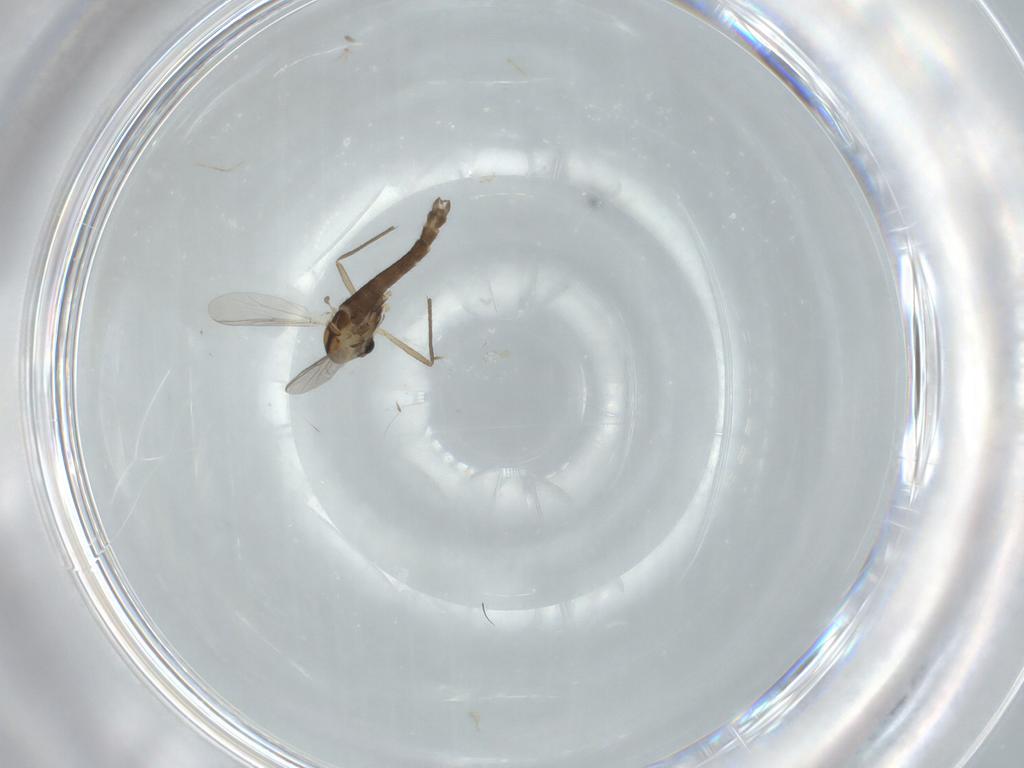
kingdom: Animalia
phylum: Arthropoda
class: Insecta
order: Diptera
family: Chironomidae
